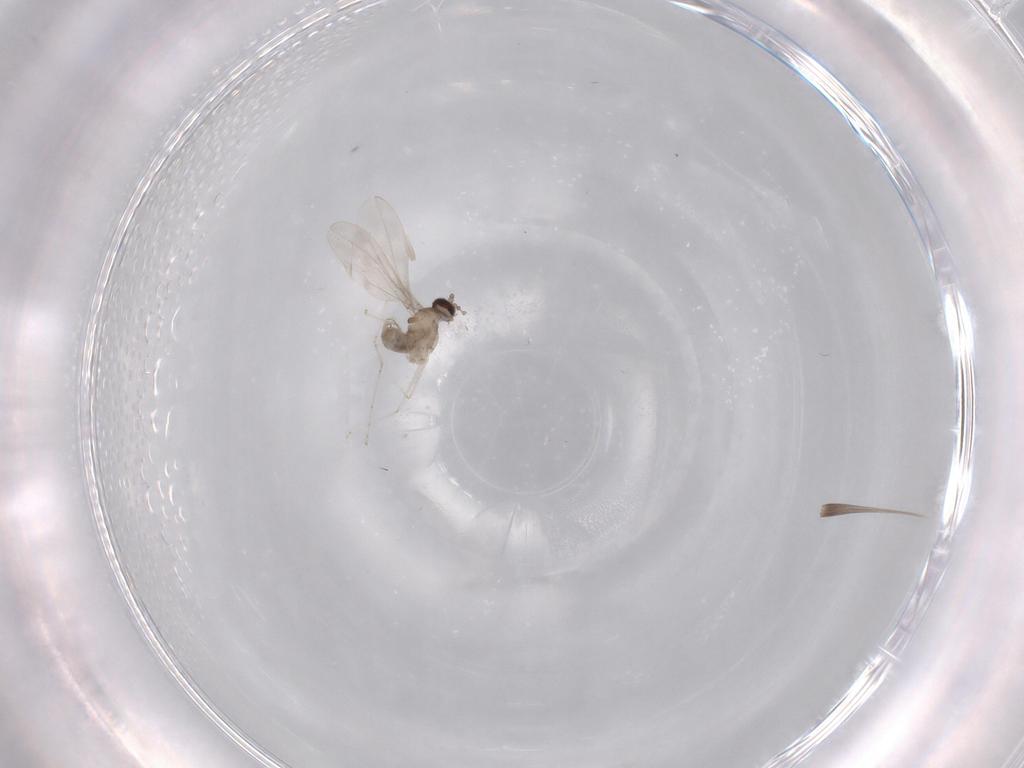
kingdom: Animalia
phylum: Arthropoda
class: Insecta
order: Diptera
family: Cecidomyiidae
